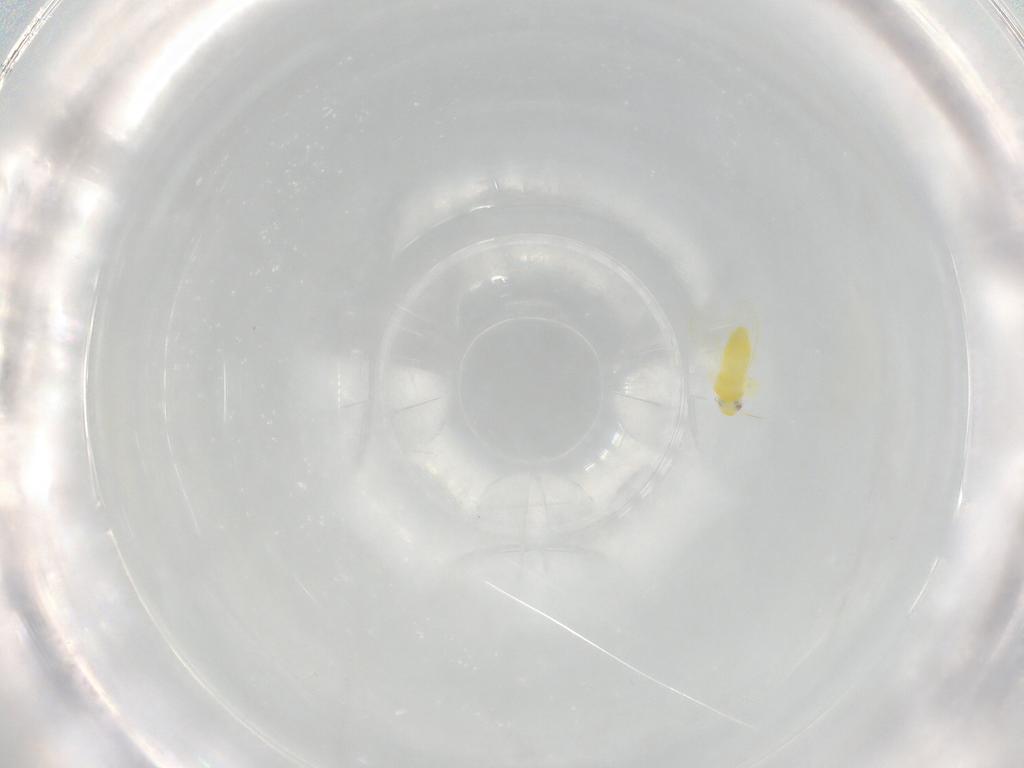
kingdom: Animalia
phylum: Arthropoda
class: Insecta
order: Hemiptera
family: Aleyrodidae
